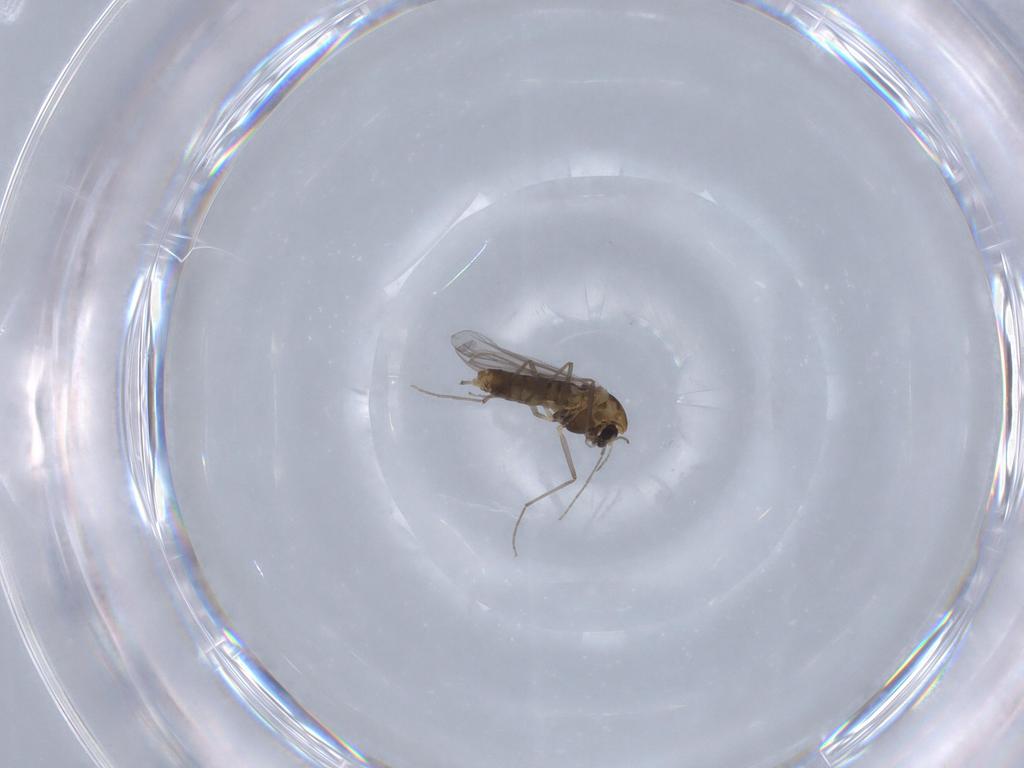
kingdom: Animalia
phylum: Arthropoda
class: Insecta
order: Diptera
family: Chironomidae
